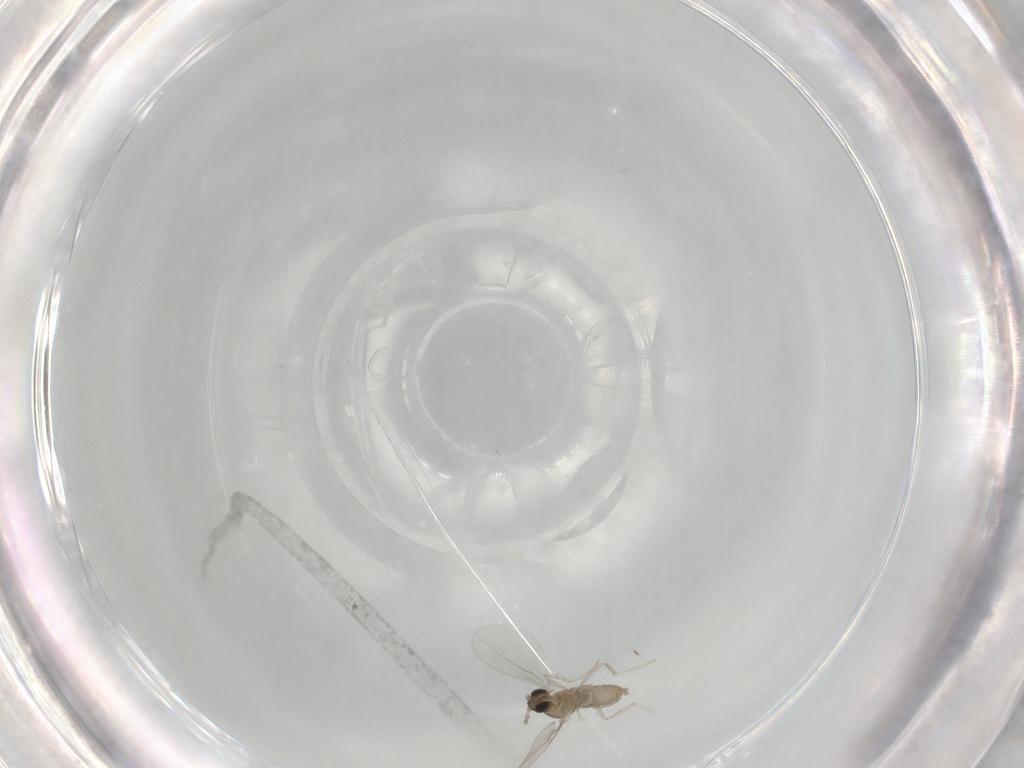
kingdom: Animalia
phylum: Arthropoda
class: Insecta
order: Diptera
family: Cecidomyiidae
